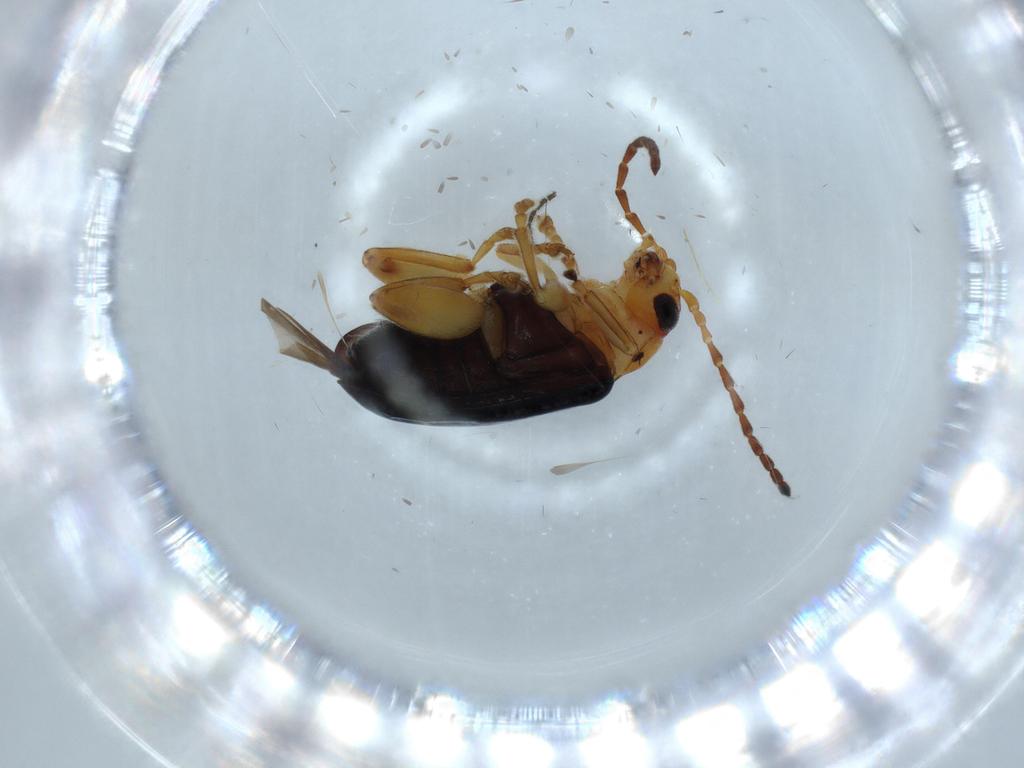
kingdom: Animalia
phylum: Arthropoda
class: Insecta
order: Coleoptera
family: Chrysomelidae
